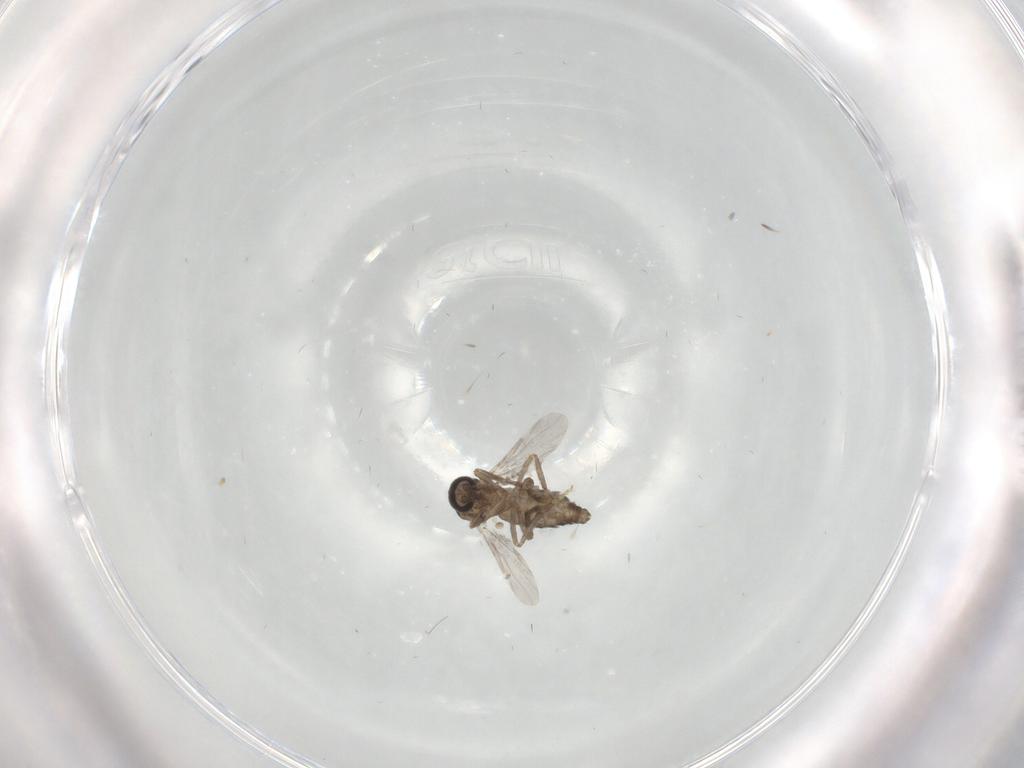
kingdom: Animalia
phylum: Arthropoda
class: Insecta
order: Diptera
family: Ceratopogonidae
